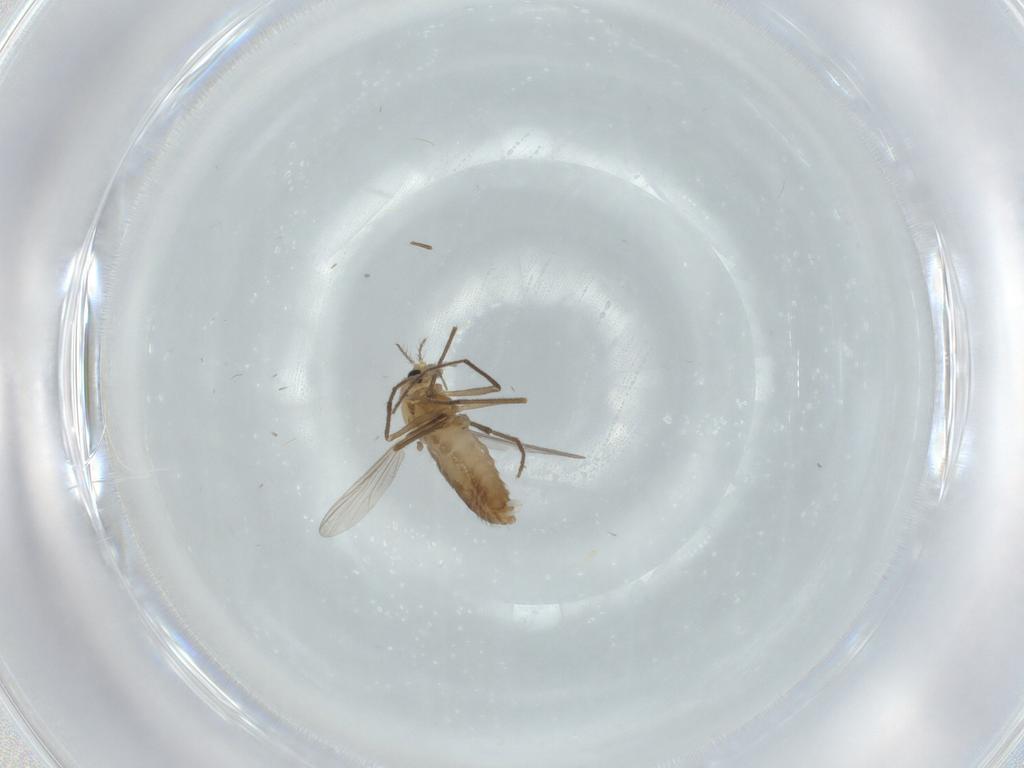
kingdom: Animalia
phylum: Arthropoda
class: Insecta
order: Diptera
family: Chironomidae
